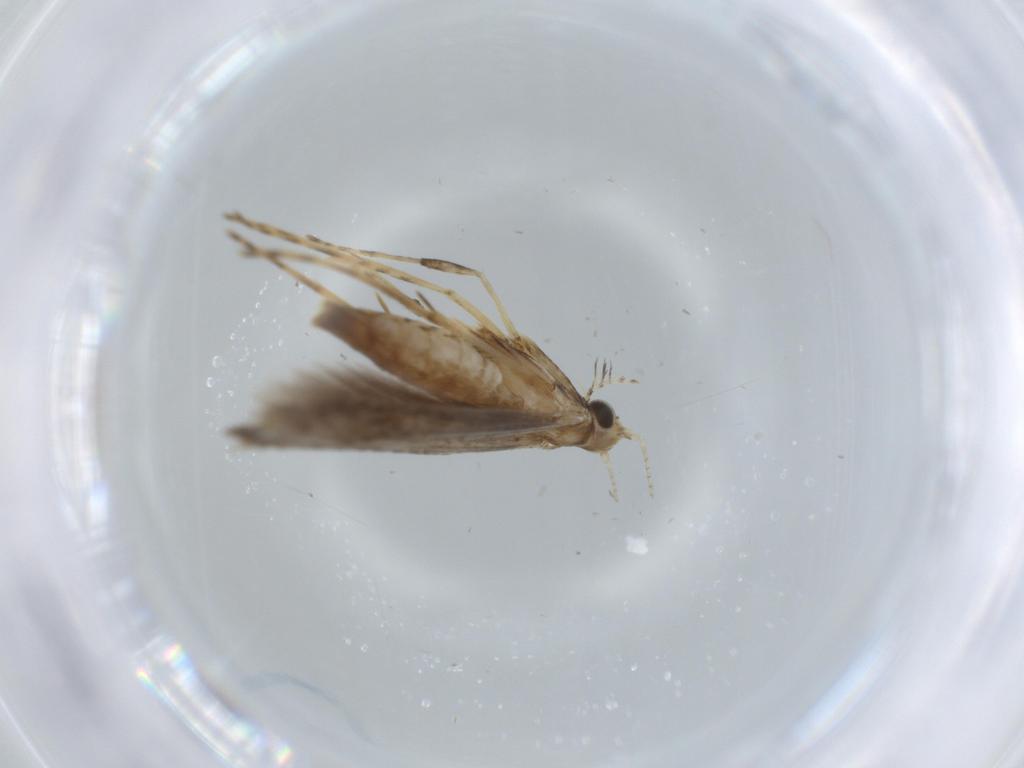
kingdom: Animalia
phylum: Arthropoda
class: Insecta
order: Lepidoptera
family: Gracillariidae
